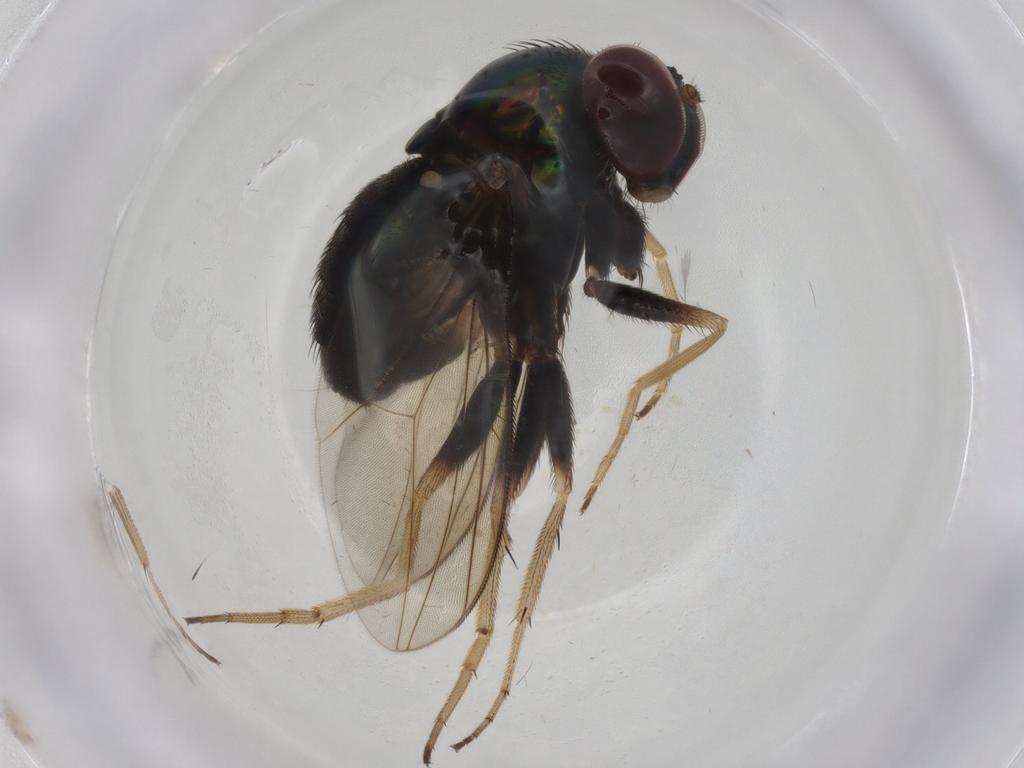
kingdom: Animalia
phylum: Arthropoda
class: Insecta
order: Diptera
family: Dolichopodidae
